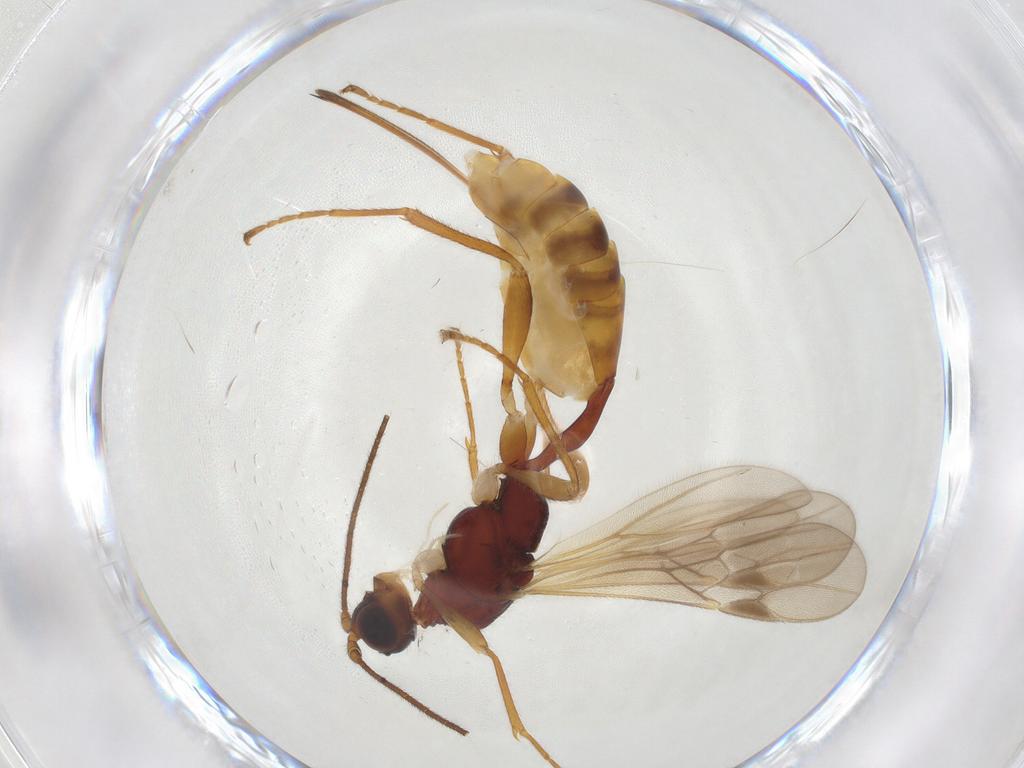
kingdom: Animalia
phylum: Arthropoda
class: Insecta
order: Hymenoptera
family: Braconidae
